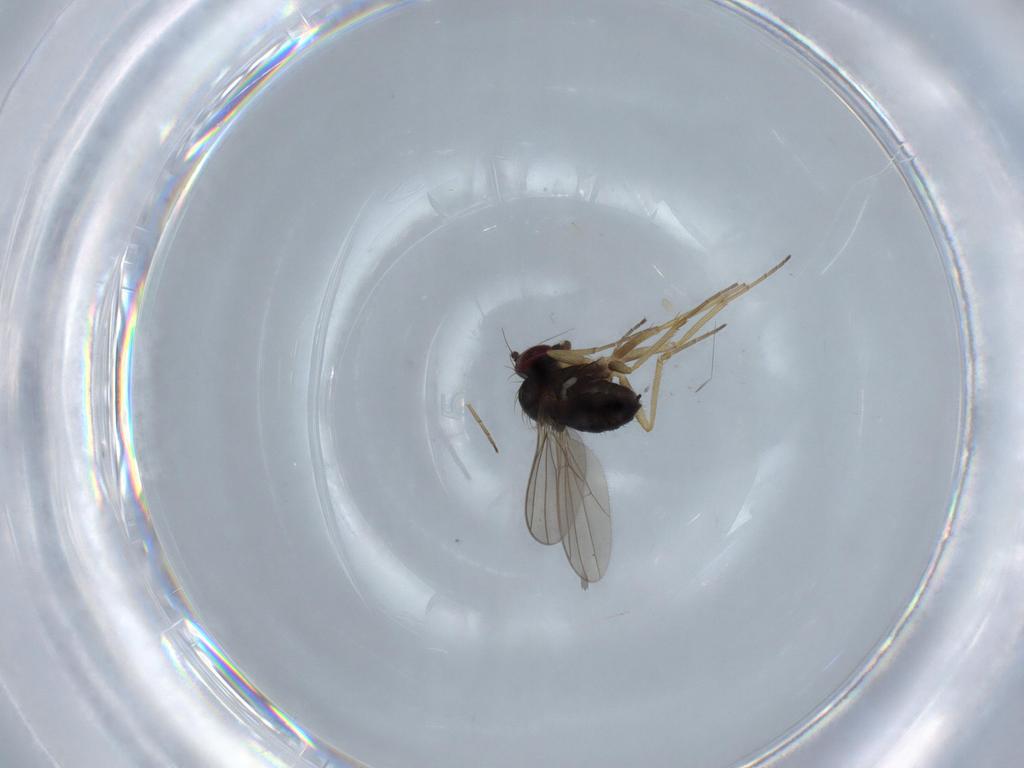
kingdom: Animalia
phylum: Arthropoda
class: Insecta
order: Diptera
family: Dolichopodidae
